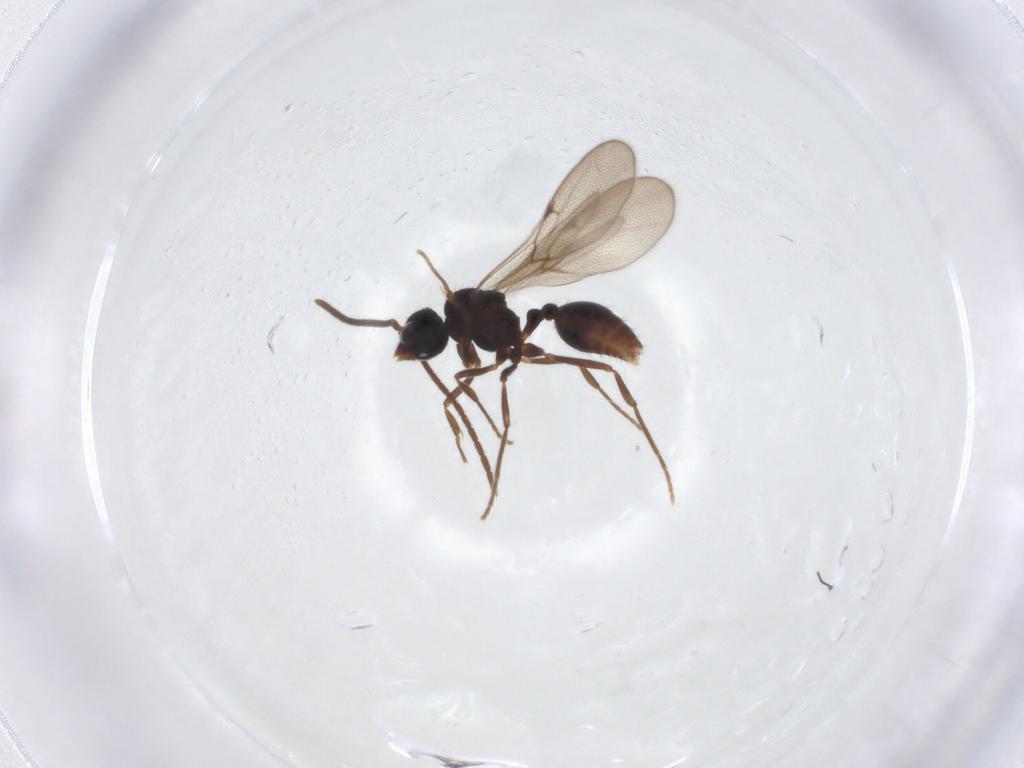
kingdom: Animalia
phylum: Arthropoda
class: Insecta
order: Hymenoptera
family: Formicidae
